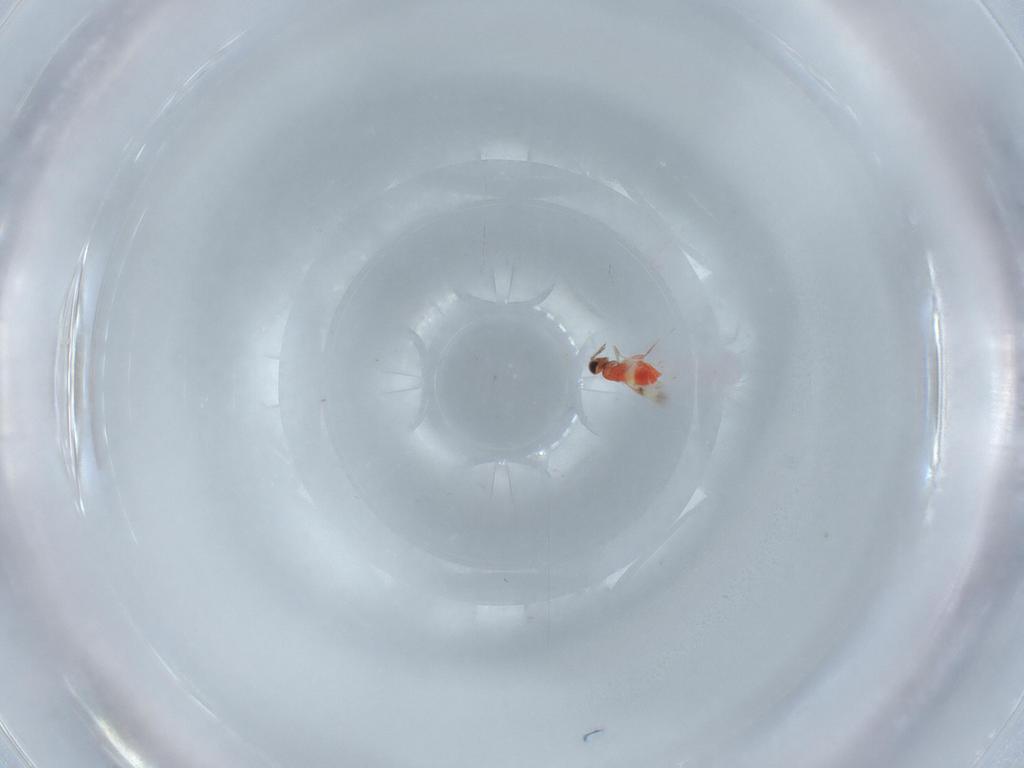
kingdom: Animalia
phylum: Arthropoda
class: Insecta
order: Hymenoptera
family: Trichogrammatidae
